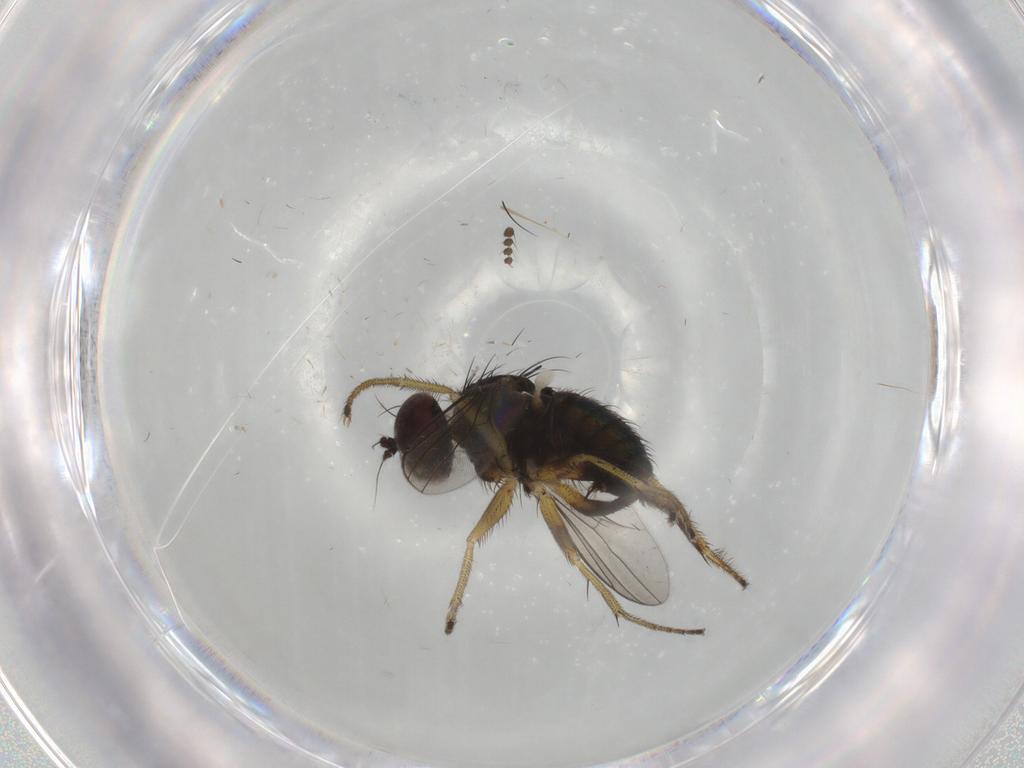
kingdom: Animalia
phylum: Arthropoda
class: Insecta
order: Diptera
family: Dolichopodidae
